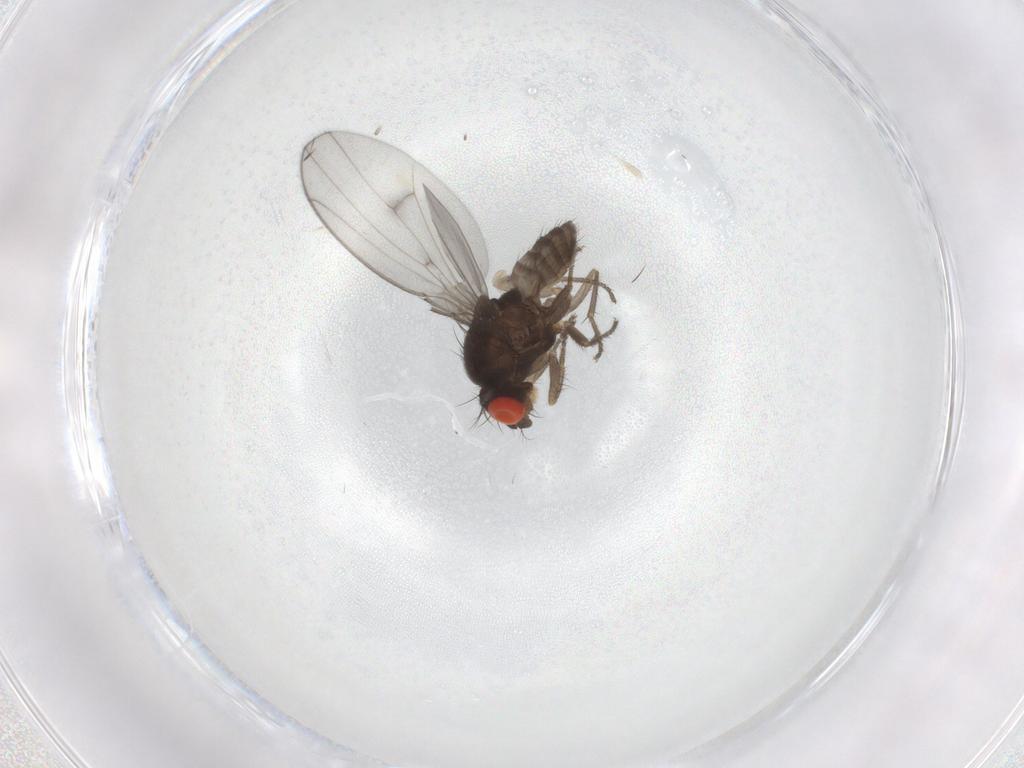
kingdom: Animalia
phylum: Arthropoda
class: Insecta
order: Diptera
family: Drosophilidae
